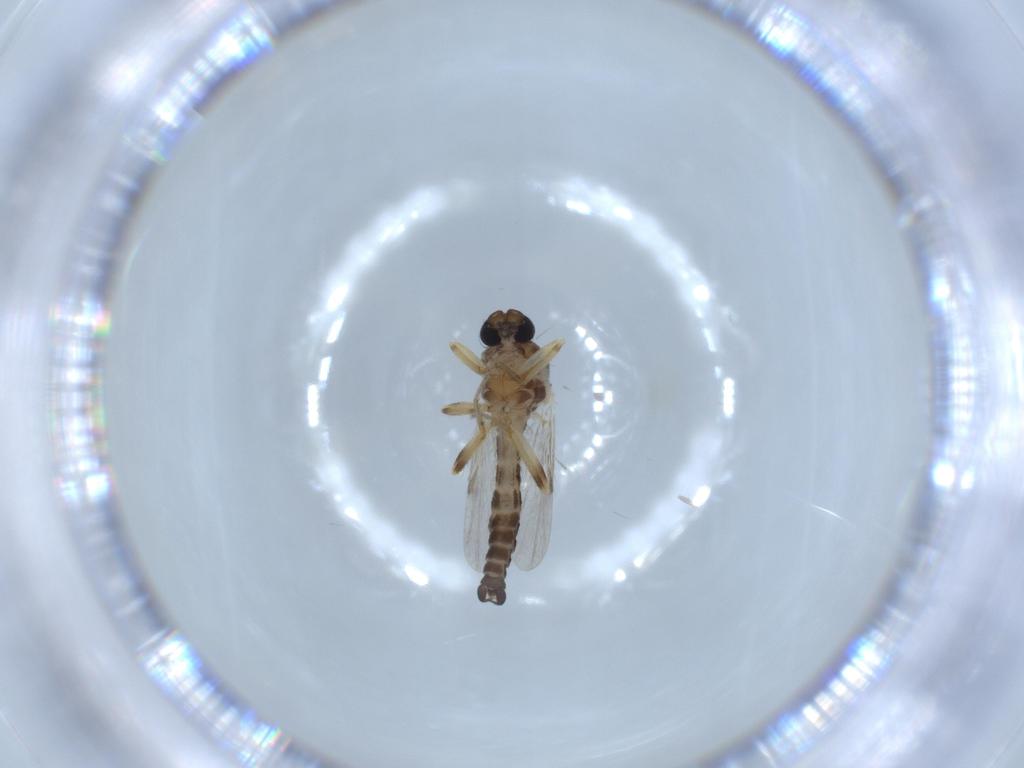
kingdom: Animalia
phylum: Arthropoda
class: Insecta
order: Diptera
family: Ceratopogonidae
